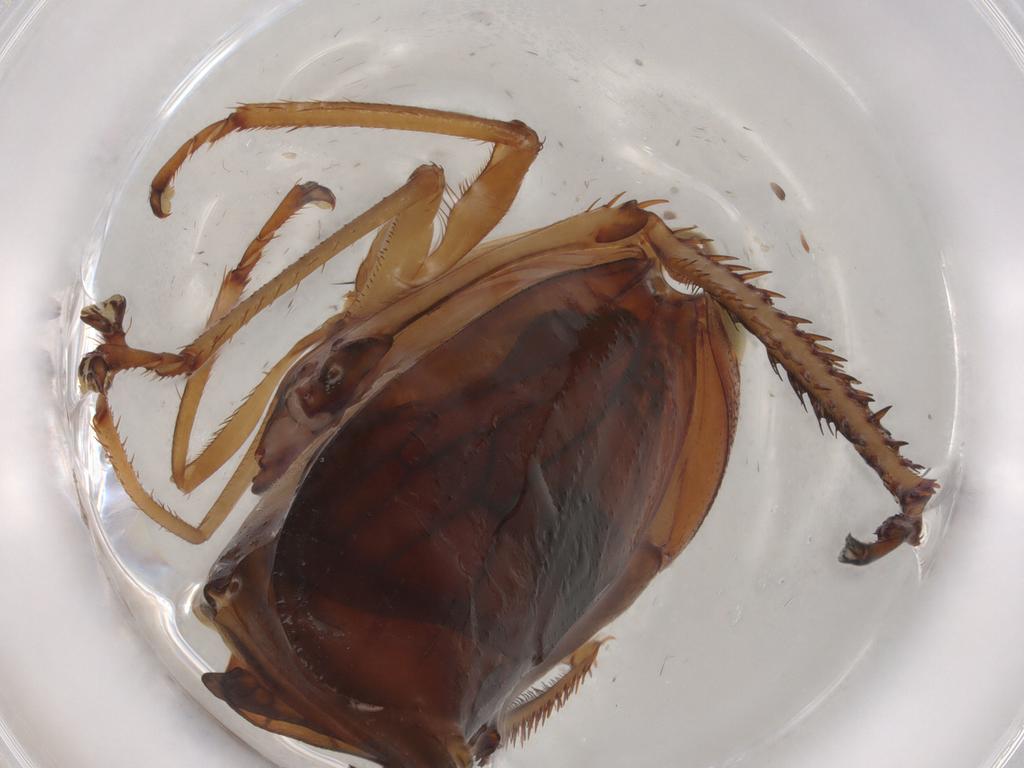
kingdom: Animalia
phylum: Arthropoda
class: Insecta
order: Hemiptera
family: Cicadellidae
